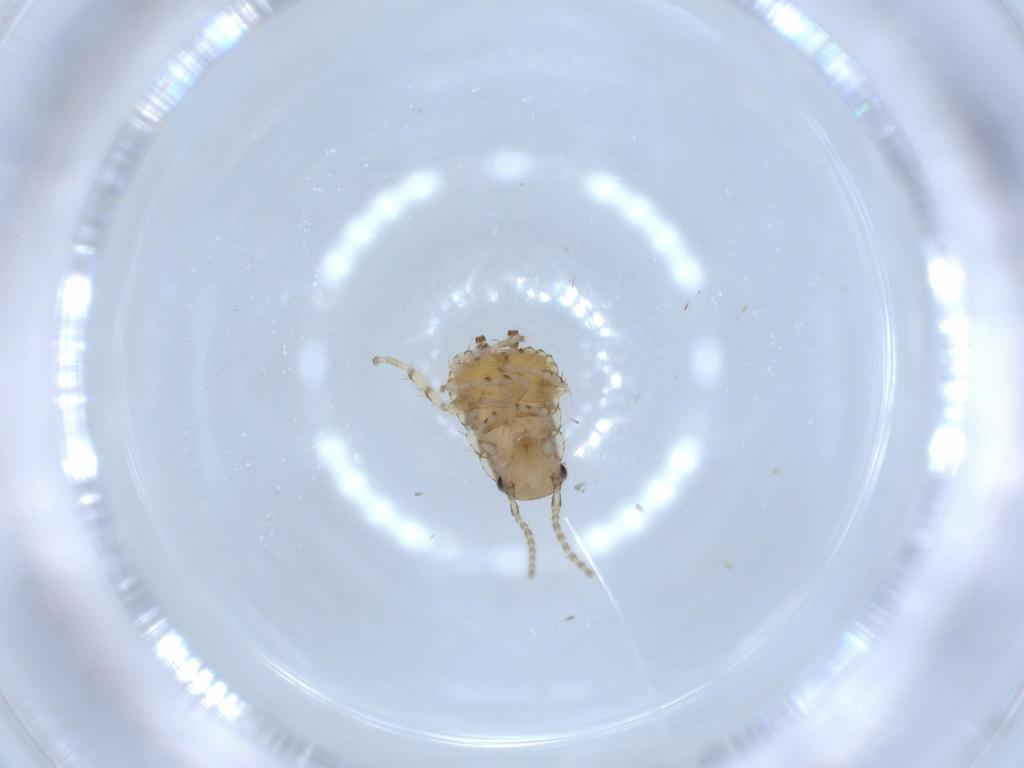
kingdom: Animalia
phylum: Arthropoda
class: Insecta
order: Blattodea
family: Ectobiidae
